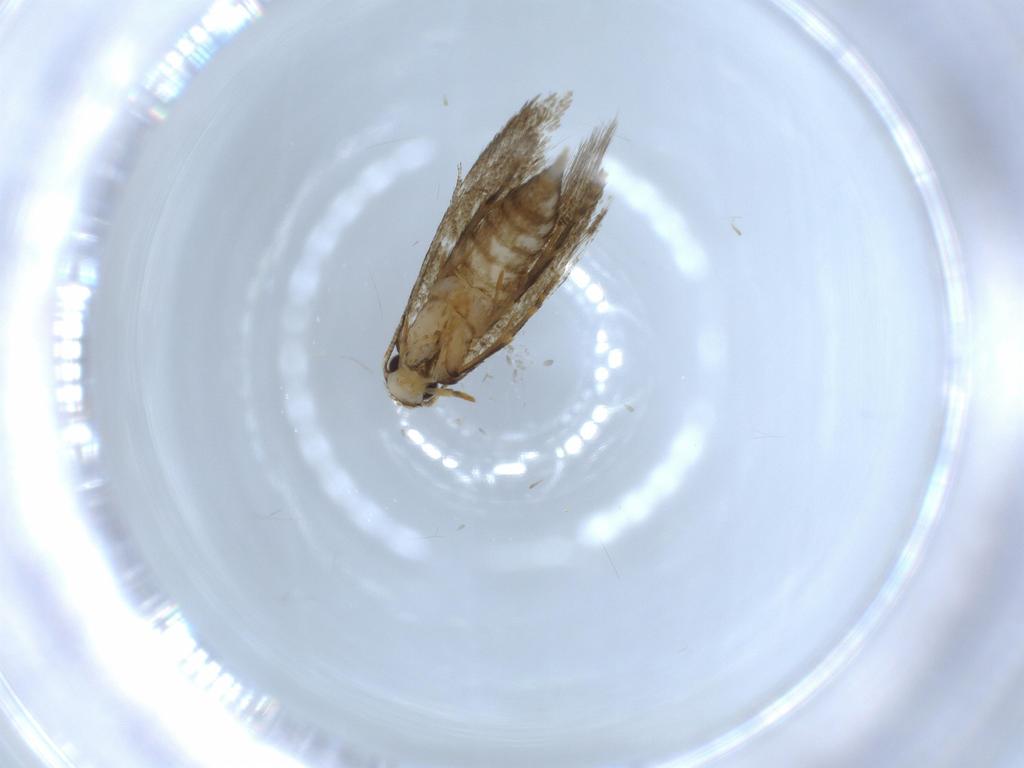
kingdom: Animalia
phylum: Arthropoda
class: Insecta
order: Lepidoptera
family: Tineidae
